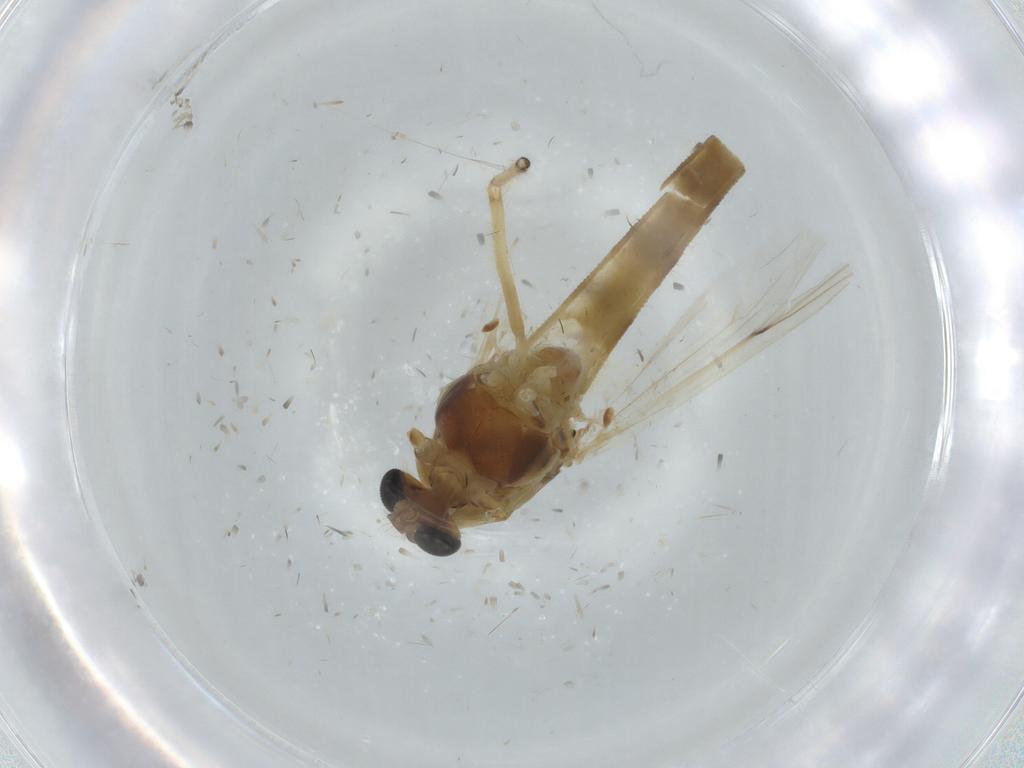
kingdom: Animalia
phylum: Arthropoda
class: Insecta
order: Diptera
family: Chironomidae
